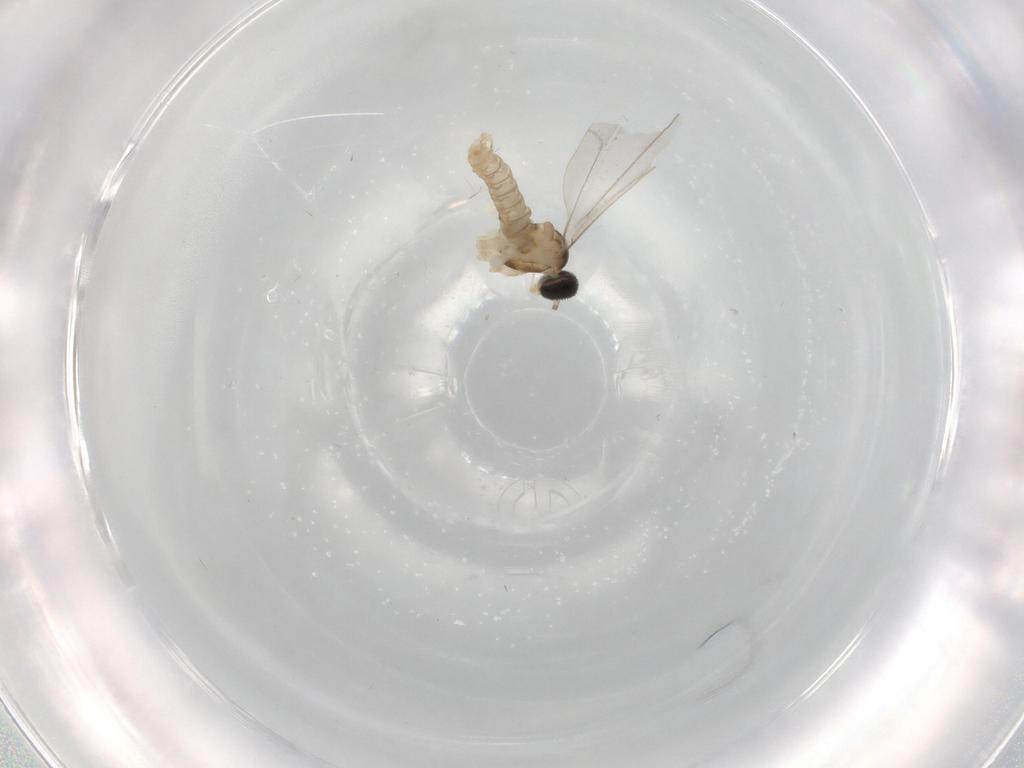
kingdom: Animalia
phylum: Arthropoda
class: Insecta
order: Diptera
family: Cecidomyiidae
